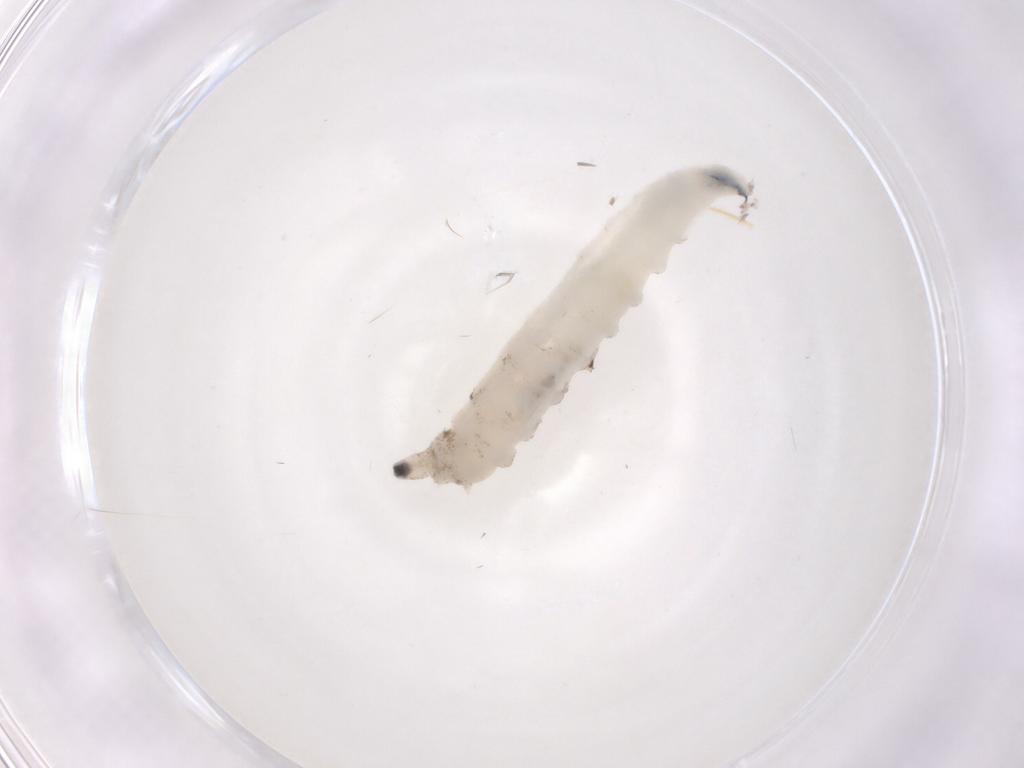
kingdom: Animalia
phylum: Arthropoda
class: Insecta
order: Diptera
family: Drosophilidae
